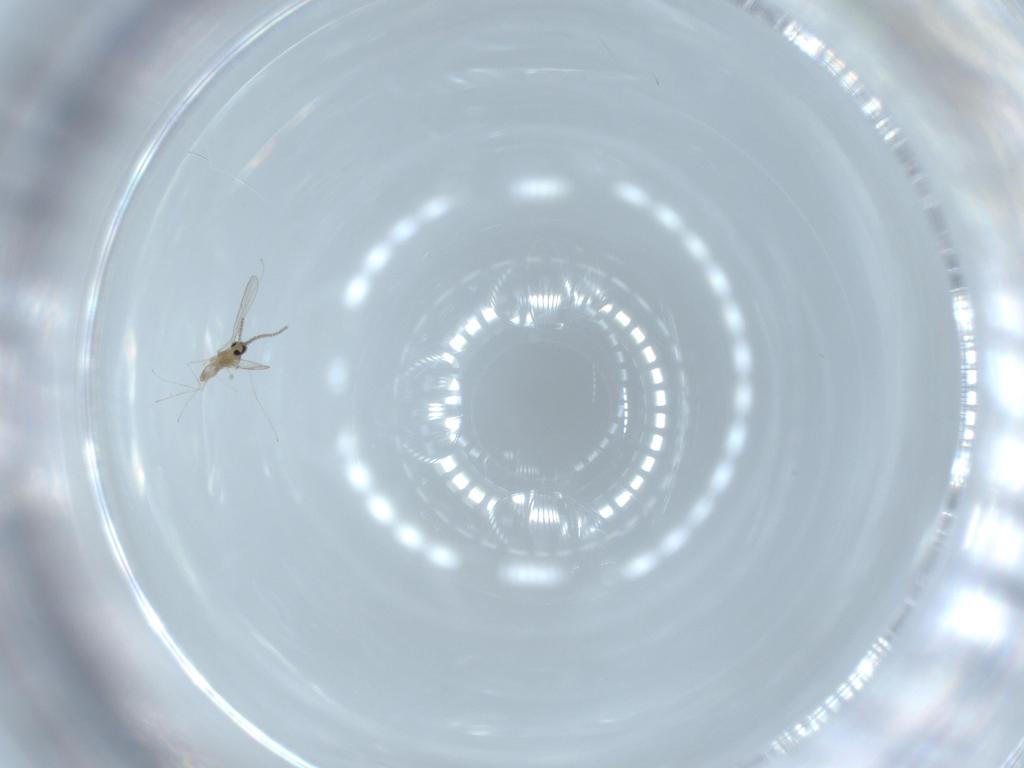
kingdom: Animalia
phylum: Arthropoda
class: Insecta
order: Diptera
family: Cecidomyiidae
